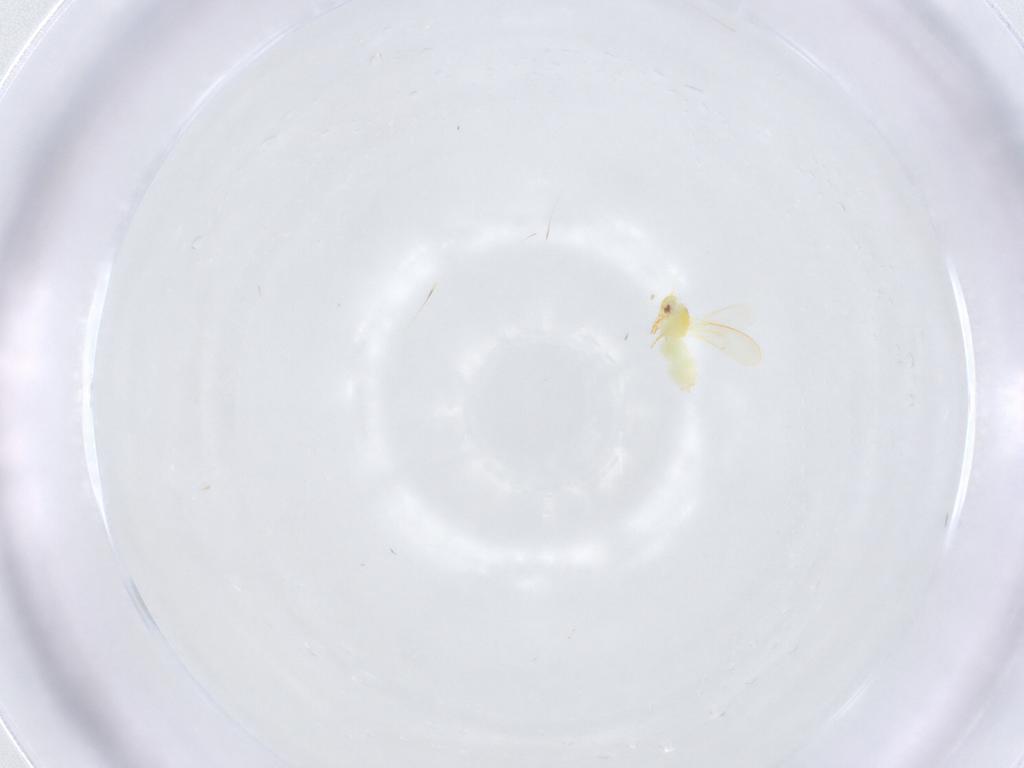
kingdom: Animalia
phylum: Arthropoda
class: Insecta
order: Hemiptera
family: Aleyrodidae
